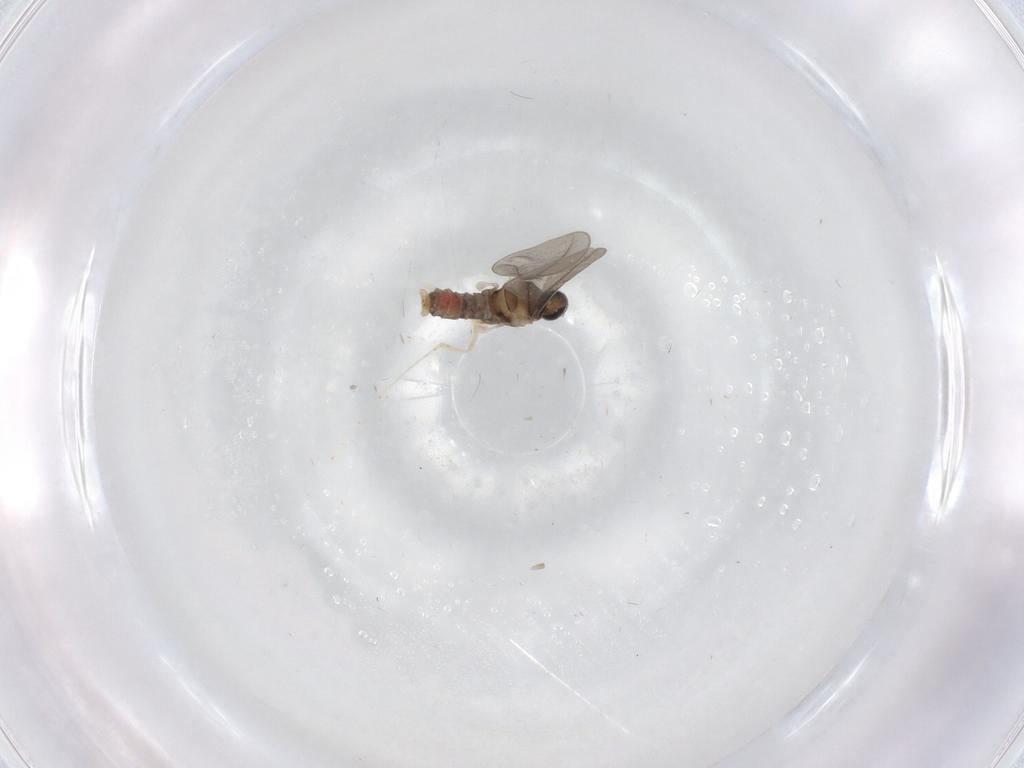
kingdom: Animalia
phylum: Arthropoda
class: Insecta
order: Diptera
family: Cecidomyiidae
